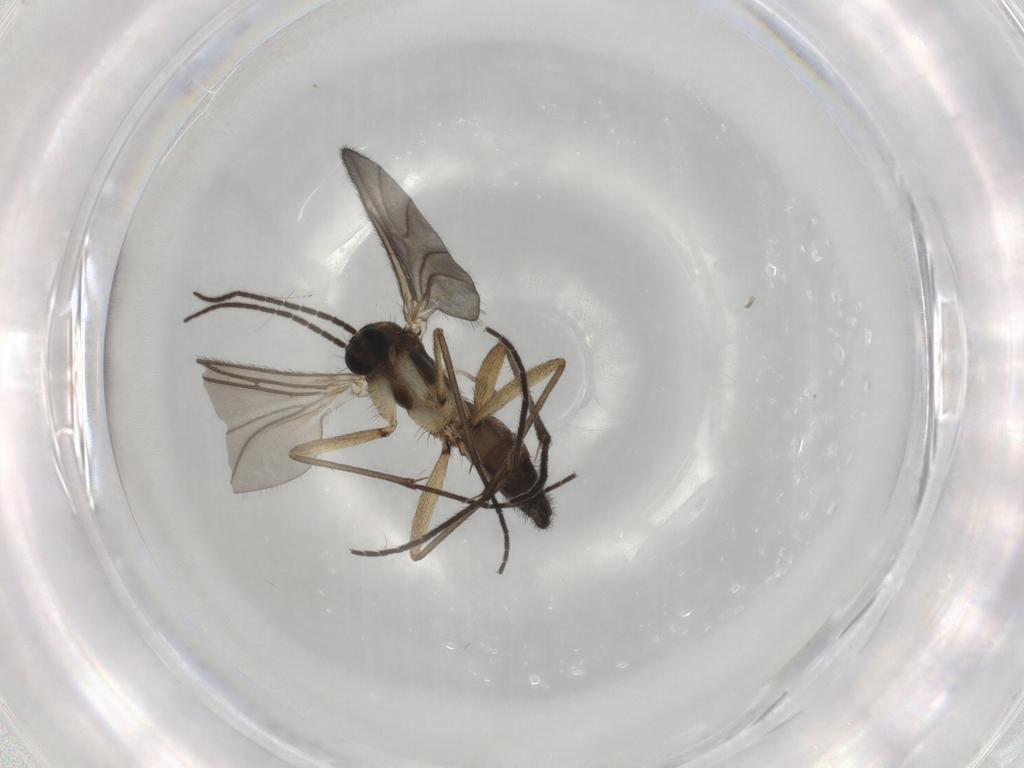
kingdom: Animalia
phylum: Arthropoda
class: Insecta
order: Diptera
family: Sciaridae
